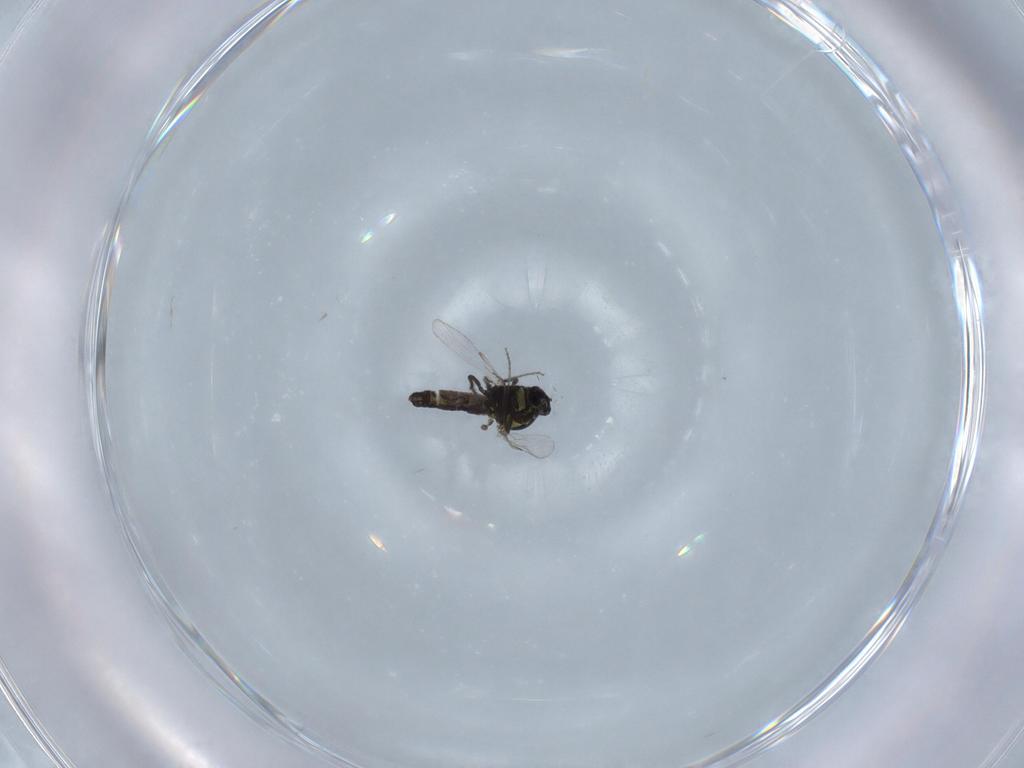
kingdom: Animalia
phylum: Arthropoda
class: Insecta
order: Diptera
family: Ceratopogonidae
